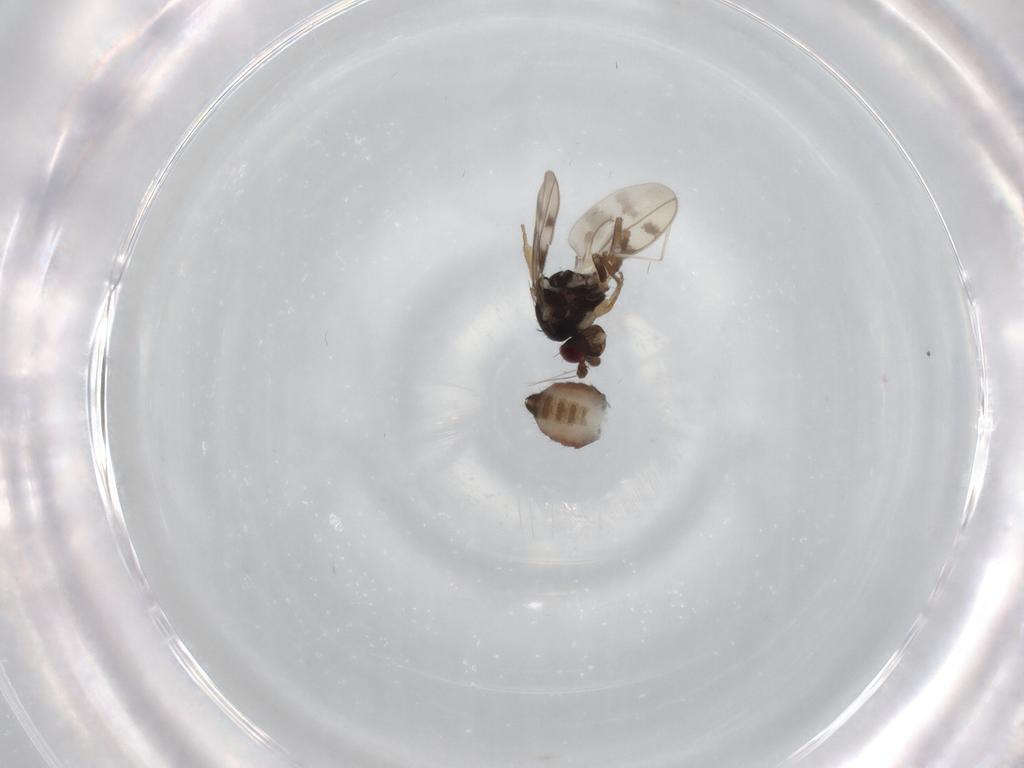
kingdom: Animalia
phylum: Arthropoda
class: Insecta
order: Diptera
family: Sphaeroceridae
